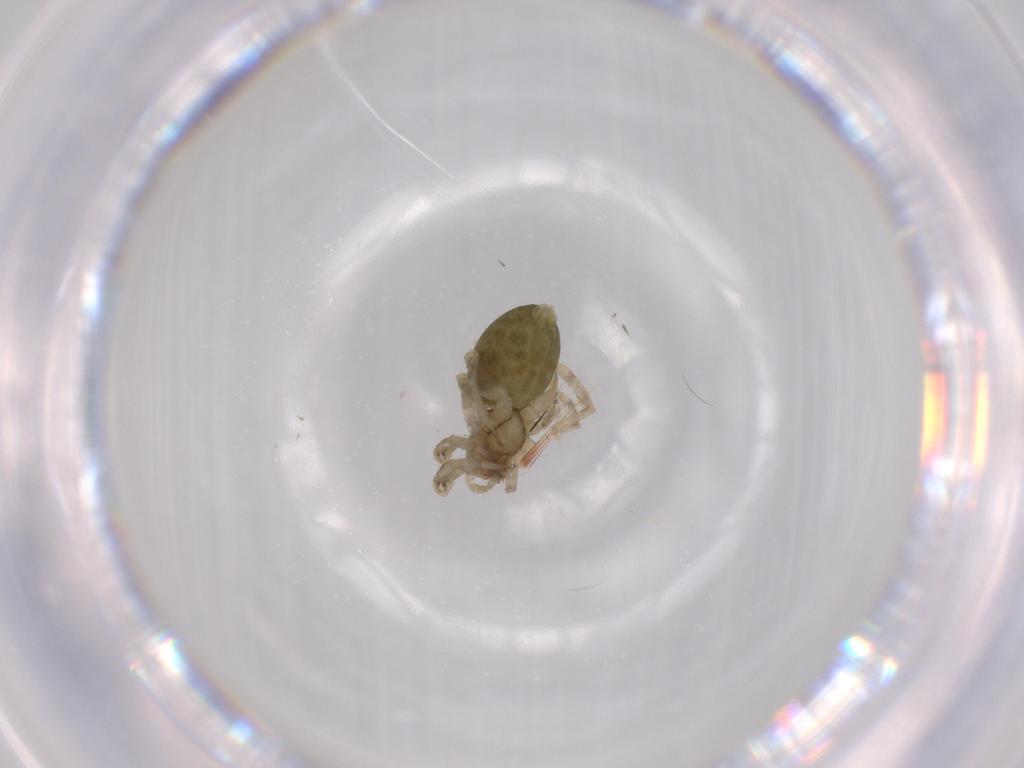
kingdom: Animalia
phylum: Arthropoda
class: Arachnida
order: Araneae
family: Anyphaenidae
